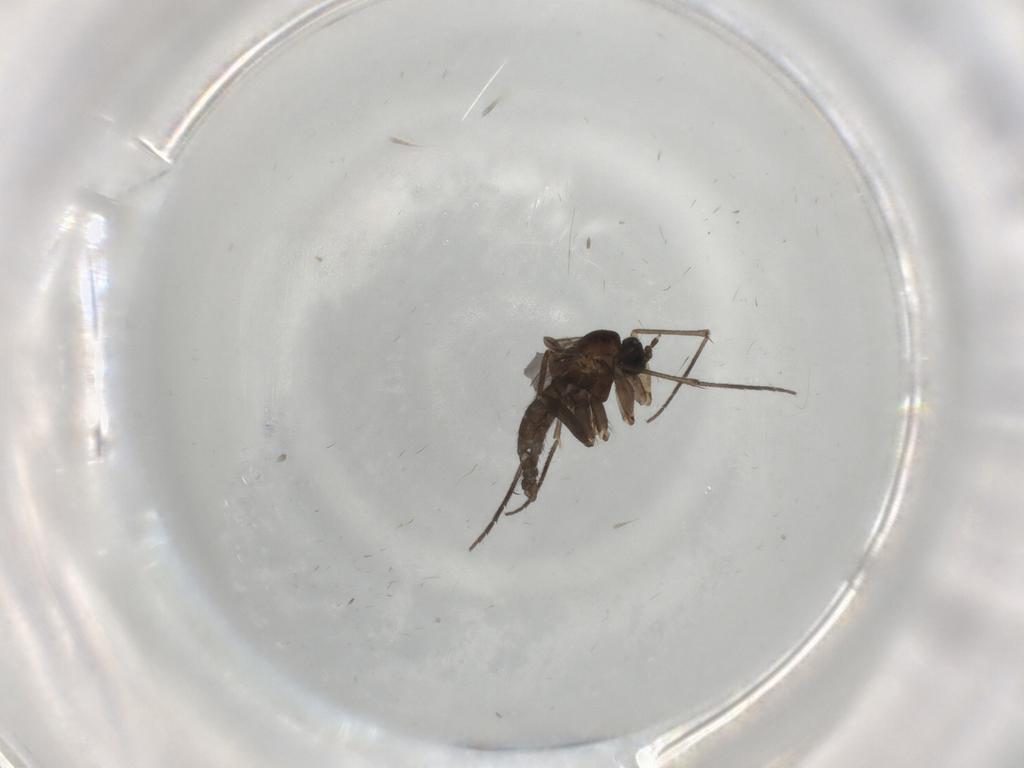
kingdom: Animalia
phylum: Arthropoda
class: Insecta
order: Diptera
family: Sciaridae
